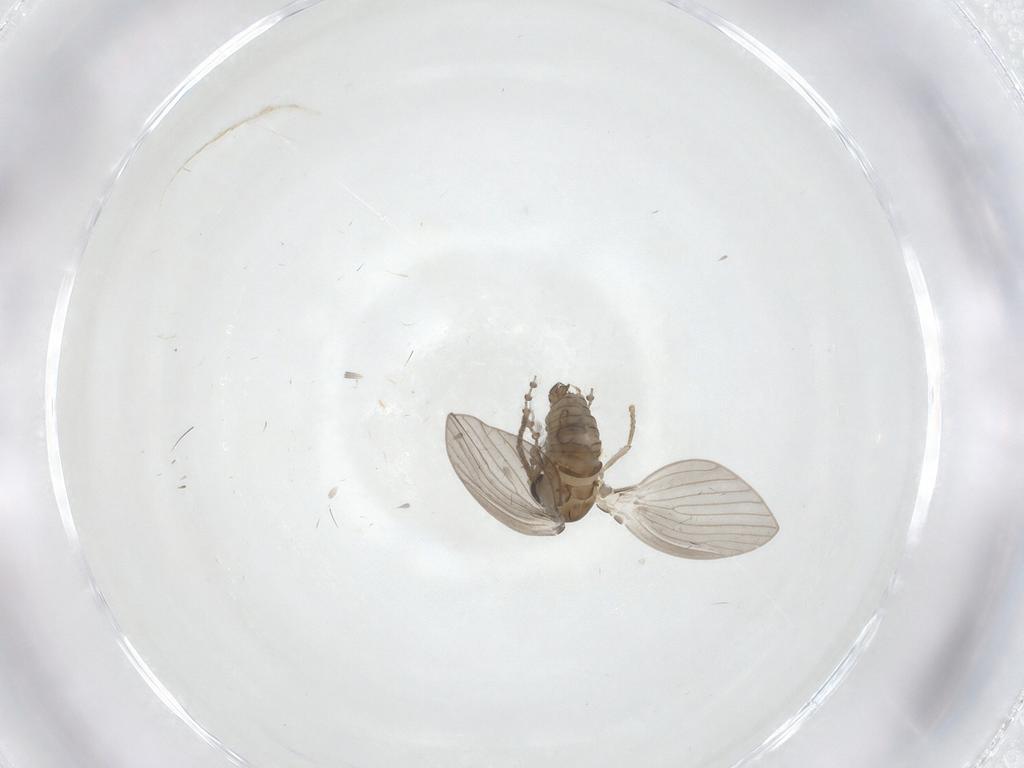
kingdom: Animalia
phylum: Arthropoda
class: Insecta
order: Diptera
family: Psychodidae
